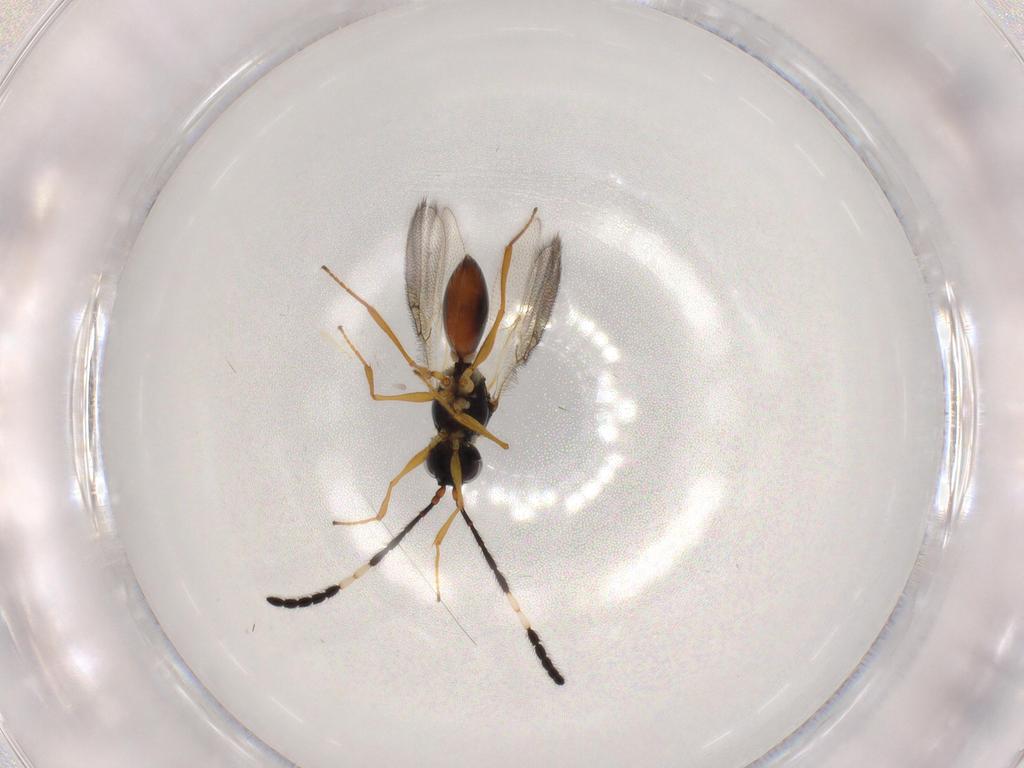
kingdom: Animalia
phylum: Arthropoda
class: Insecta
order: Hymenoptera
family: Figitidae
